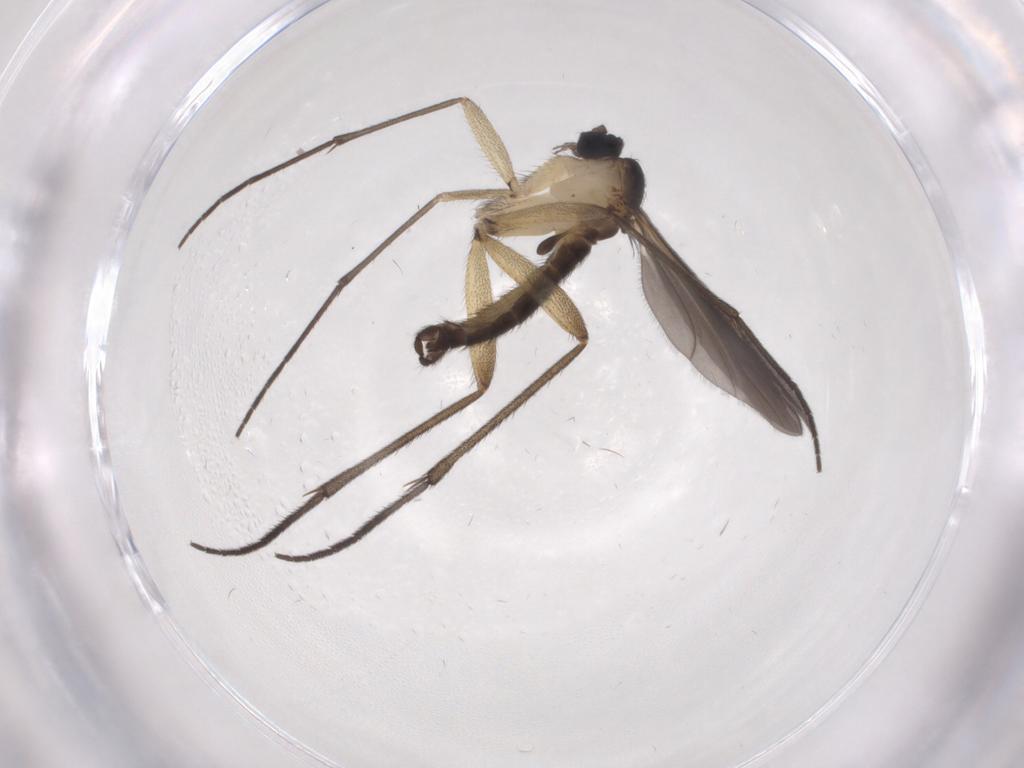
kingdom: Animalia
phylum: Arthropoda
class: Insecta
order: Diptera
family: Sciaridae
